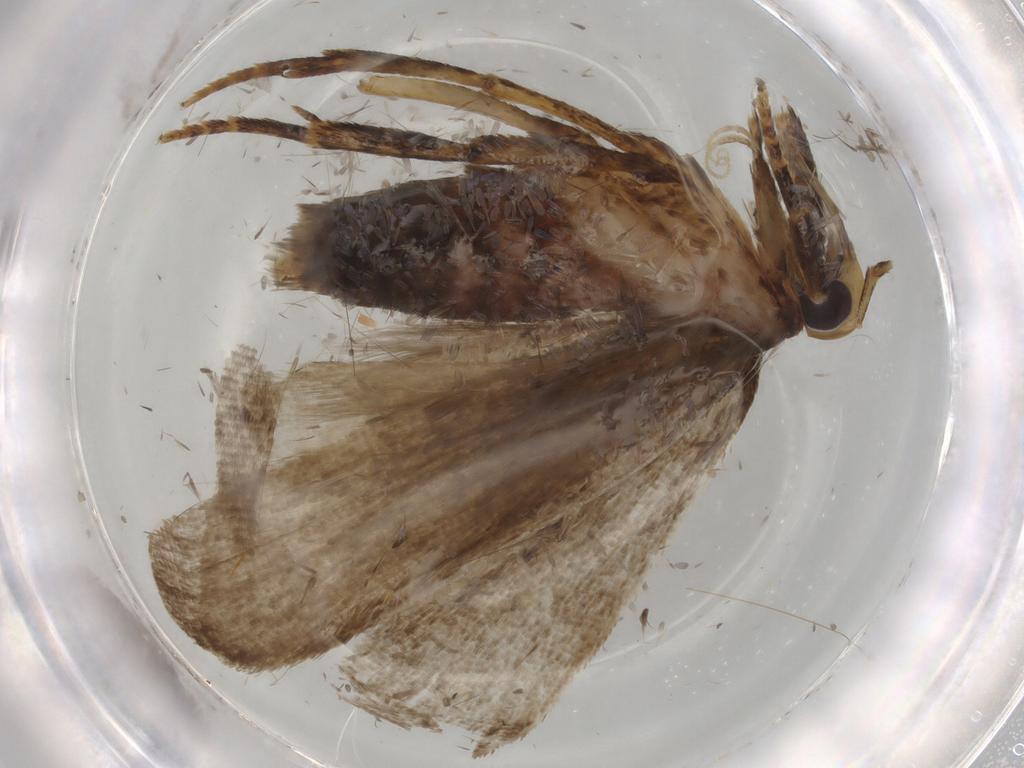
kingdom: Animalia
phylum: Arthropoda
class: Insecta
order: Lepidoptera
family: Autostichidae
